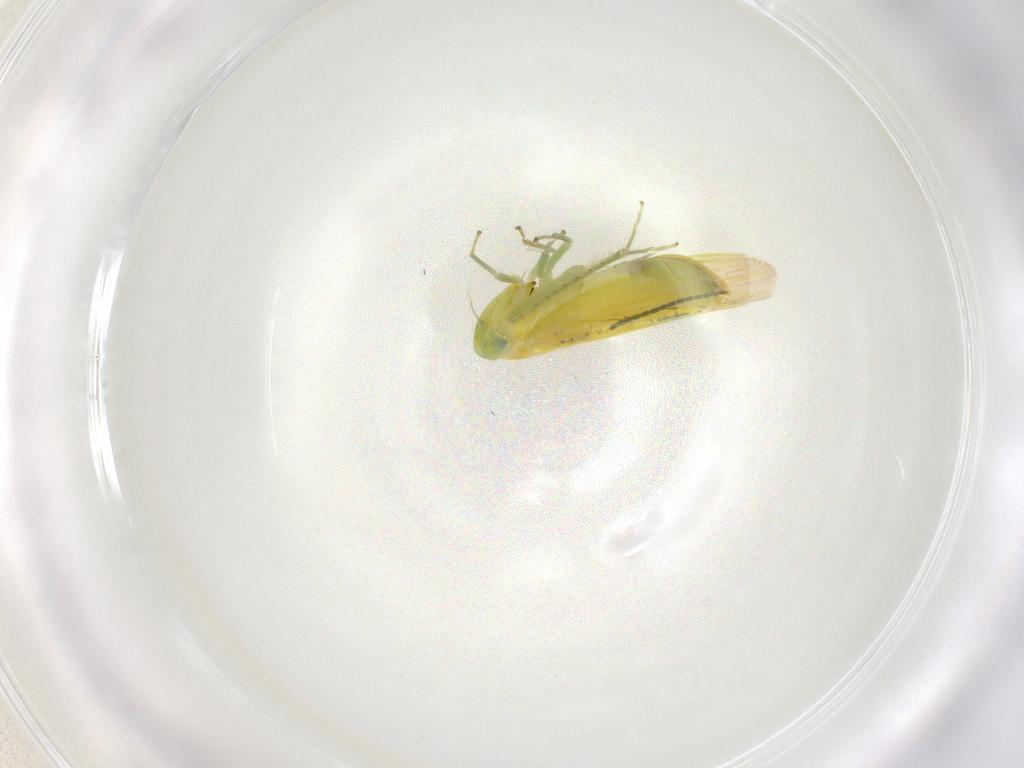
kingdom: Animalia
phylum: Arthropoda
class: Insecta
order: Hemiptera
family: Cicadellidae
